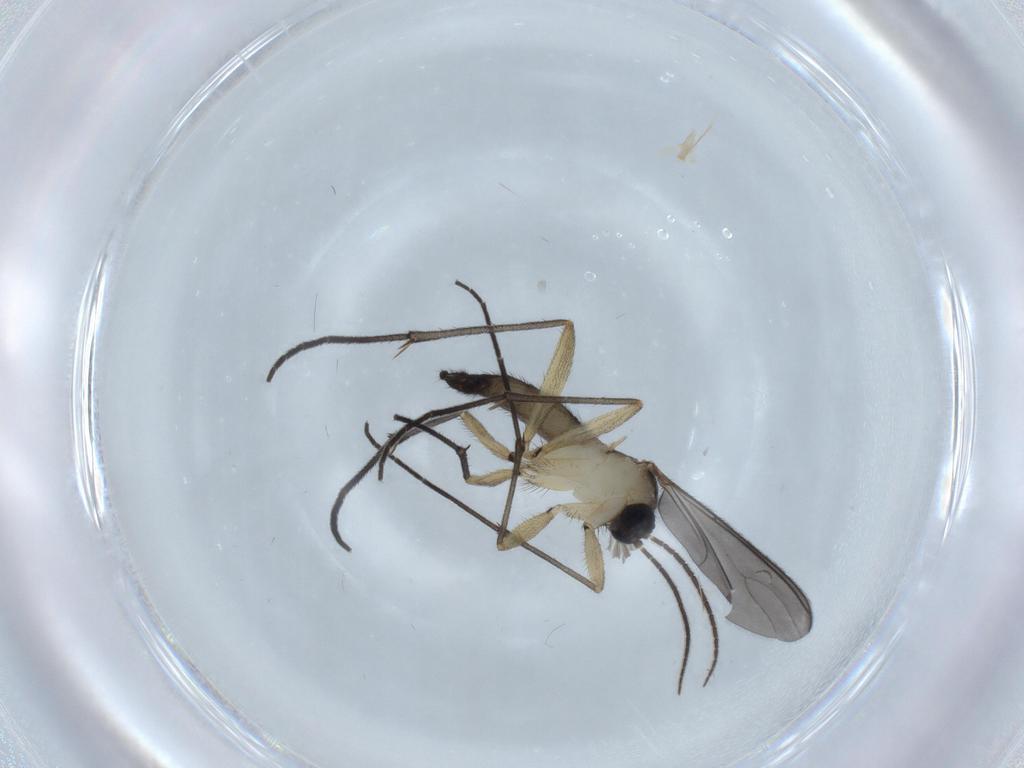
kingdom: Animalia
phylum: Arthropoda
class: Insecta
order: Diptera
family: Sciaridae
